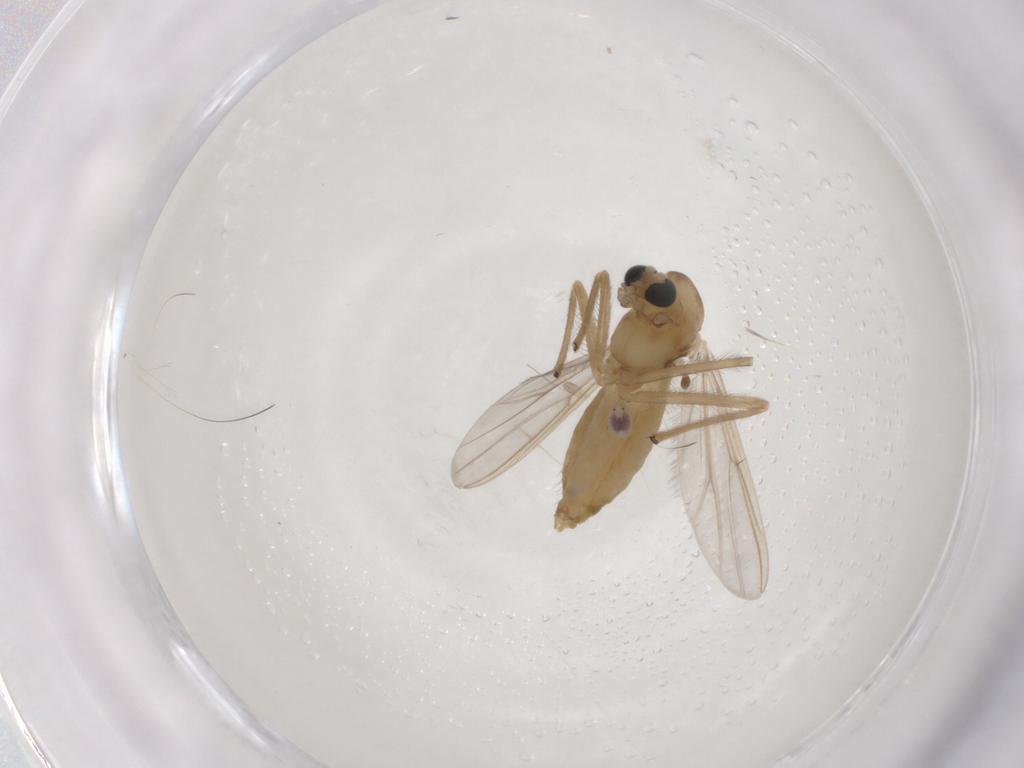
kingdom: Animalia
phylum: Arthropoda
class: Insecta
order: Diptera
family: Chironomidae
